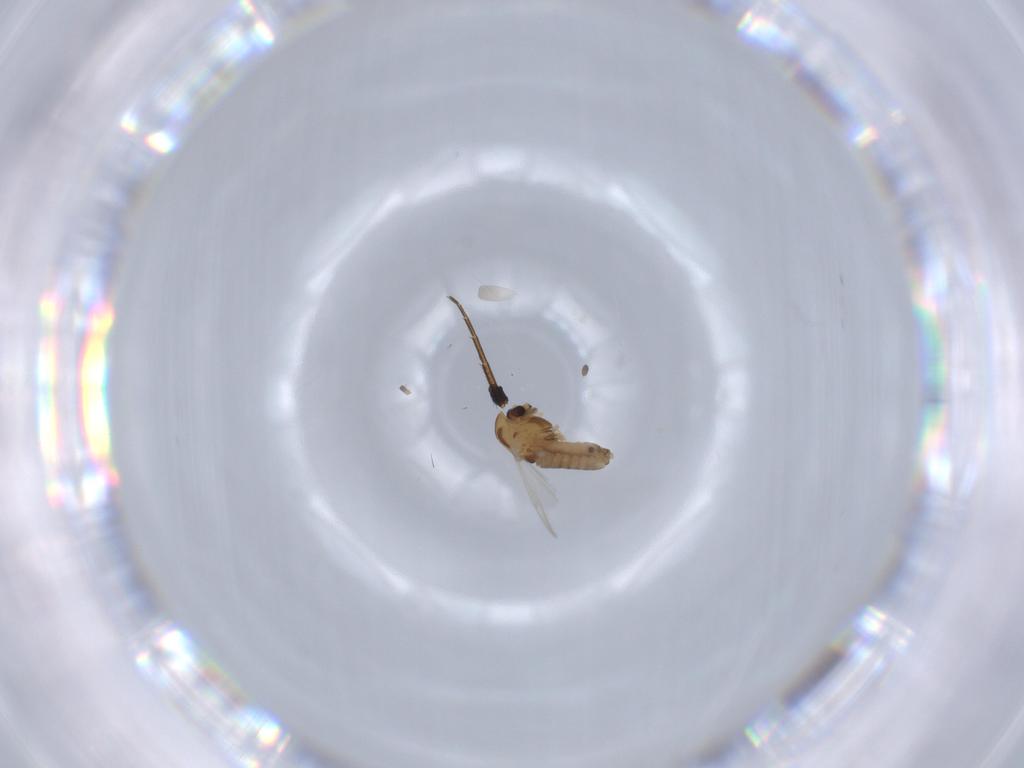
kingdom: Animalia
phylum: Arthropoda
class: Insecta
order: Diptera
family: Chironomidae
